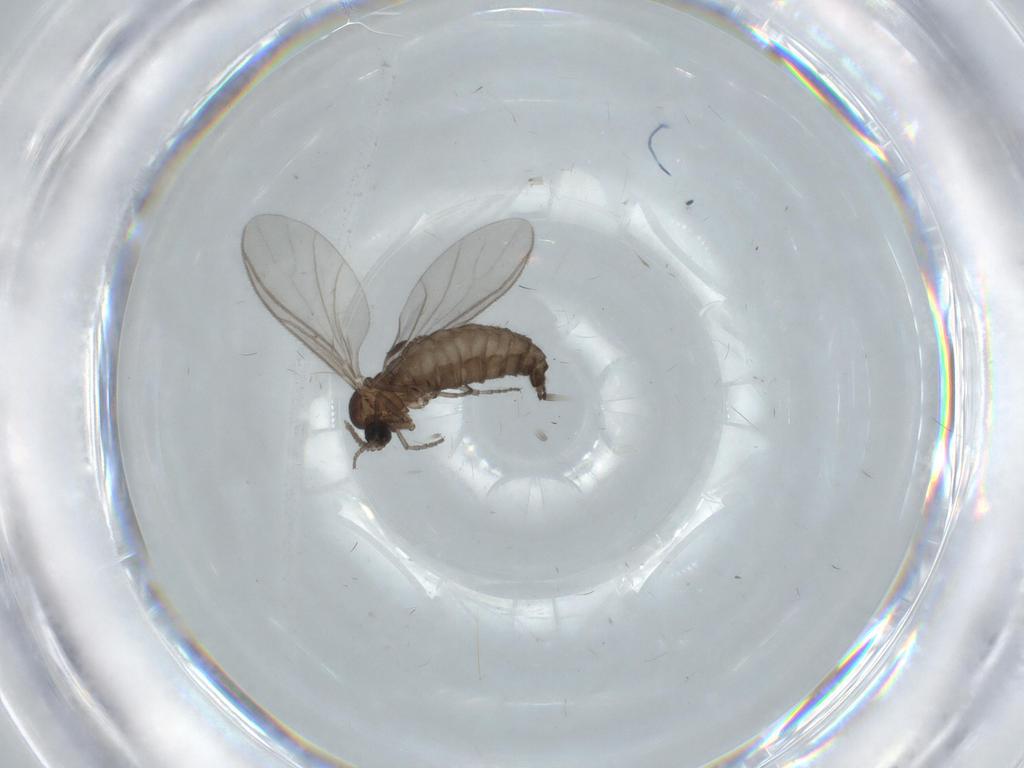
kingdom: Animalia
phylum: Arthropoda
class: Insecta
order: Diptera
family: Sciaridae
